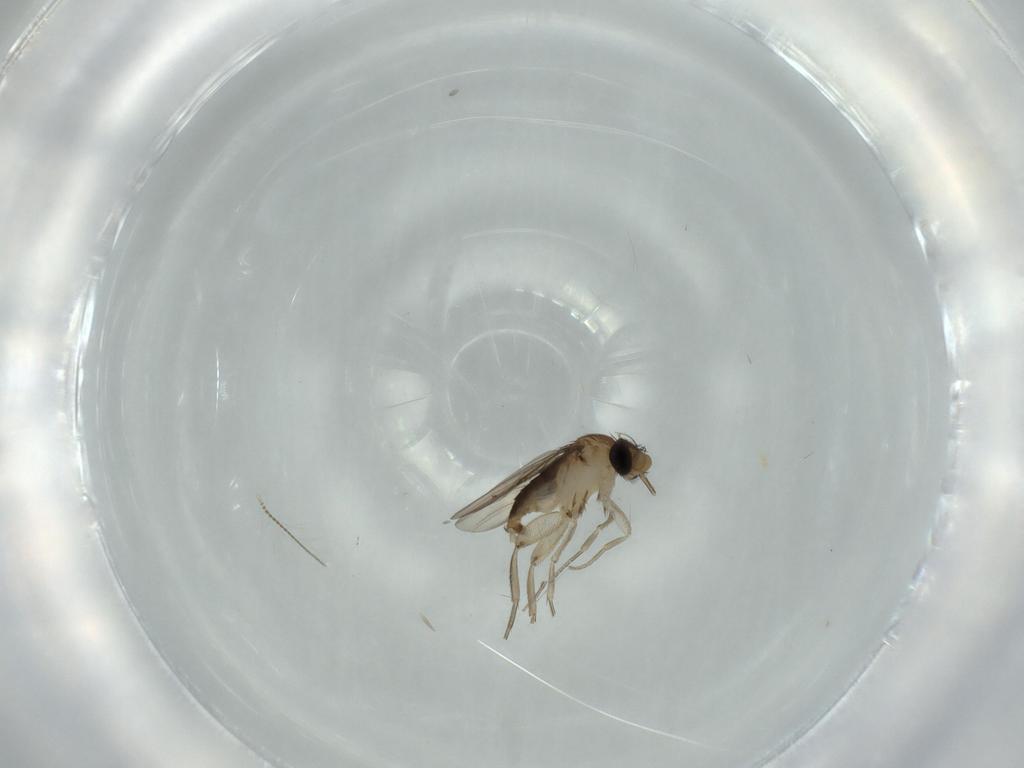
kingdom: Animalia
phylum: Arthropoda
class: Insecta
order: Diptera
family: Phoridae
